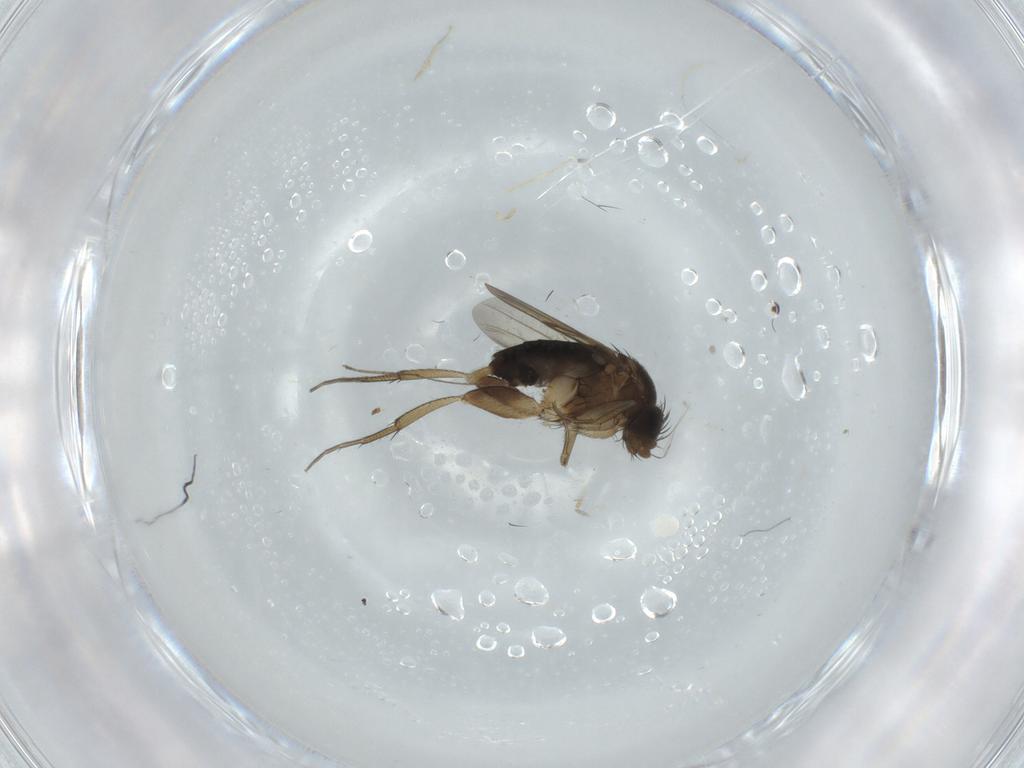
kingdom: Animalia
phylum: Arthropoda
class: Insecta
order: Diptera
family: Phoridae
